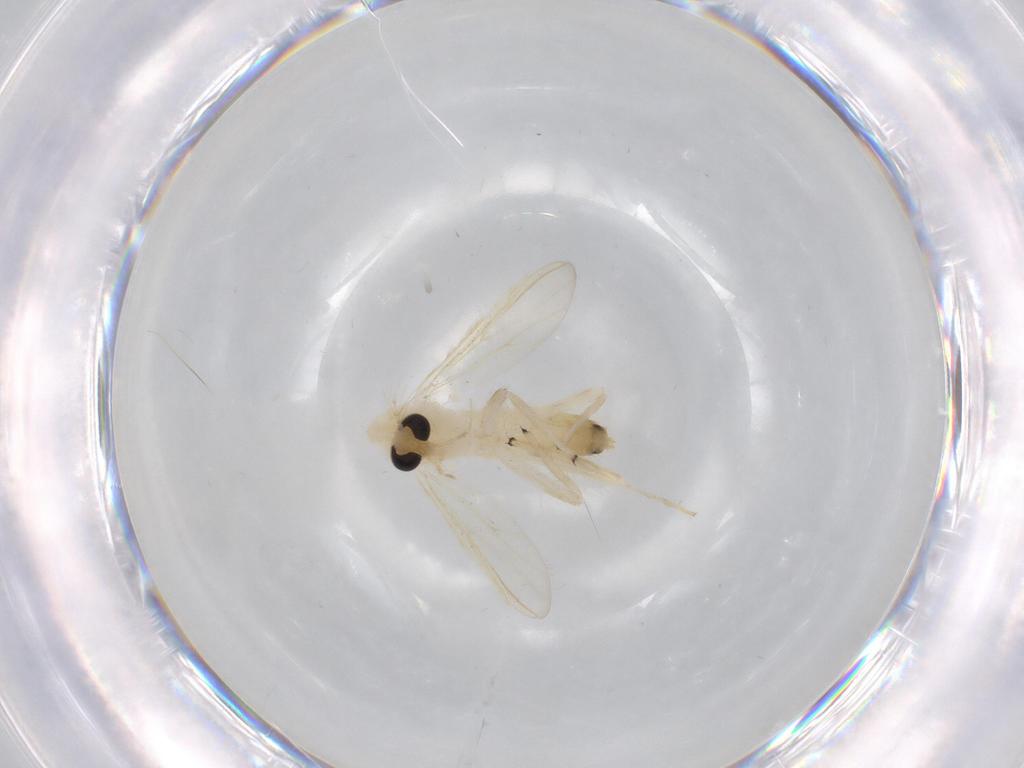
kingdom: Animalia
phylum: Arthropoda
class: Insecta
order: Diptera
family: Chironomidae
